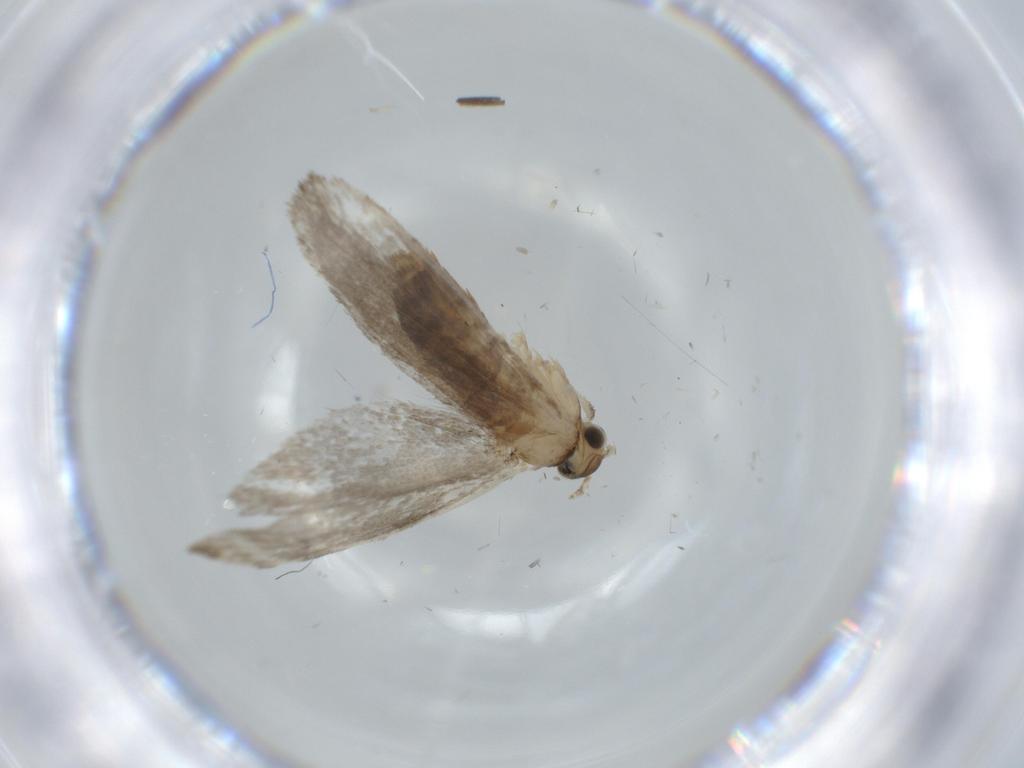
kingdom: Animalia
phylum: Arthropoda
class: Insecta
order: Lepidoptera
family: Tineidae
